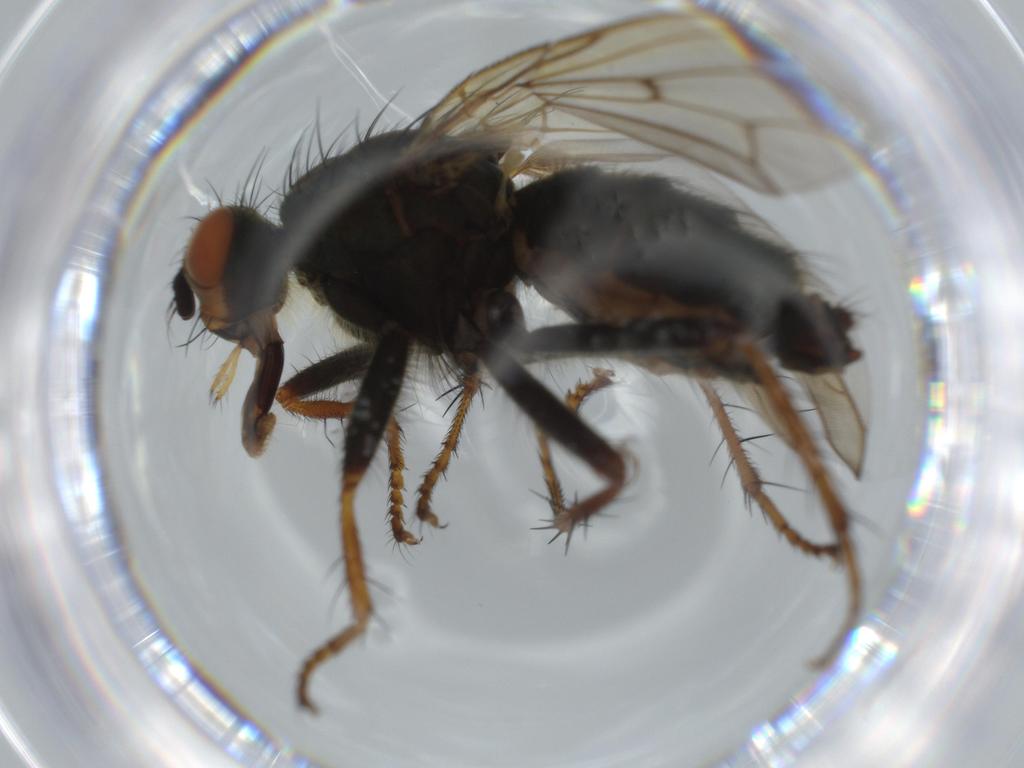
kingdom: Animalia
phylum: Arthropoda
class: Insecta
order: Diptera
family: Scathophagidae
